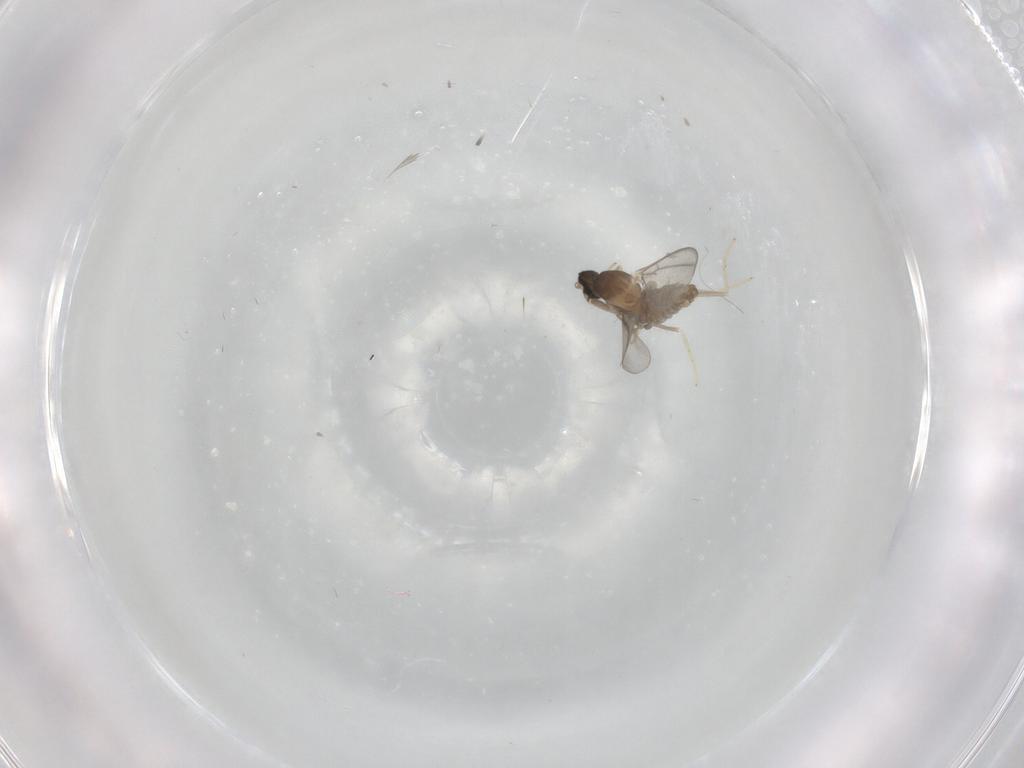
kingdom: Animalia
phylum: Arthropoda
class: Insecta
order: Diptera
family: Cecidomyiidae
